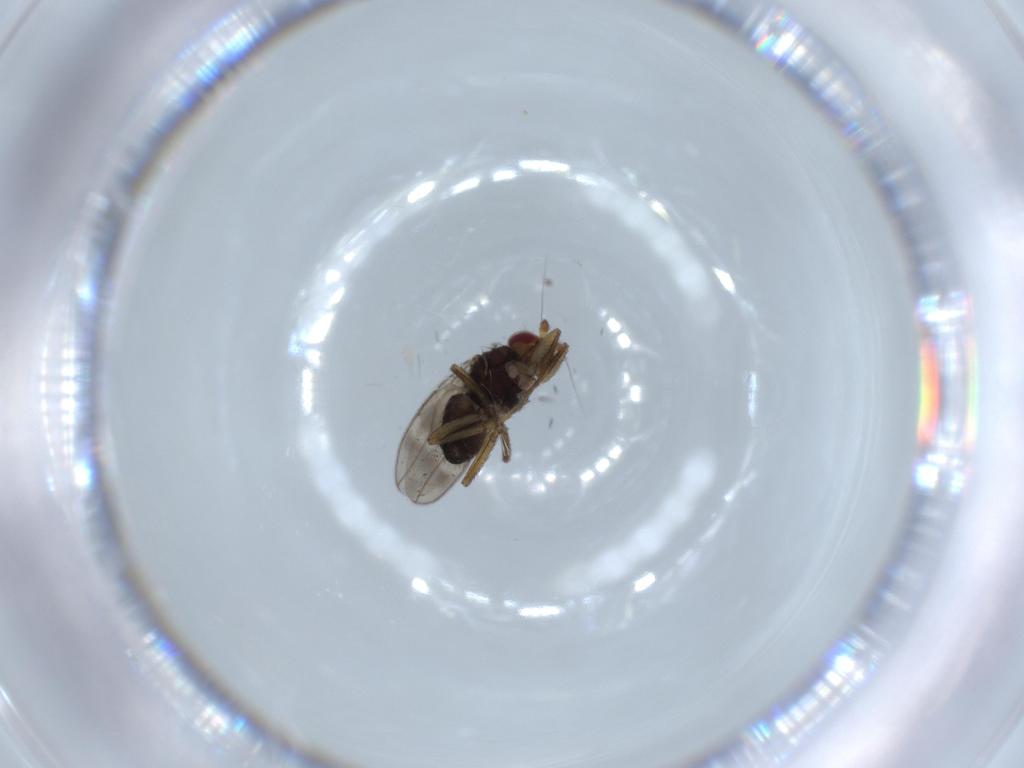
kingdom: Animalia
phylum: Arthropoda
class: Insecta
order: Diptera
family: Sphaeroceridae
